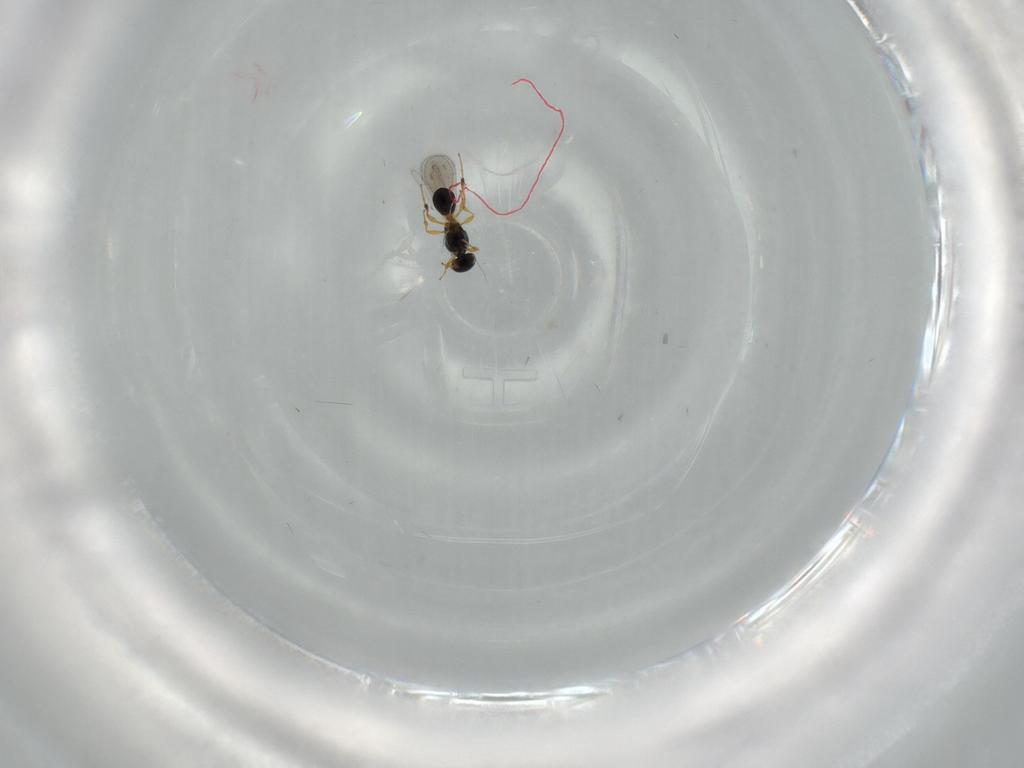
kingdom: Animalia
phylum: Arthropoda
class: Insecta
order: Hymenoptera
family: Platygastridae
